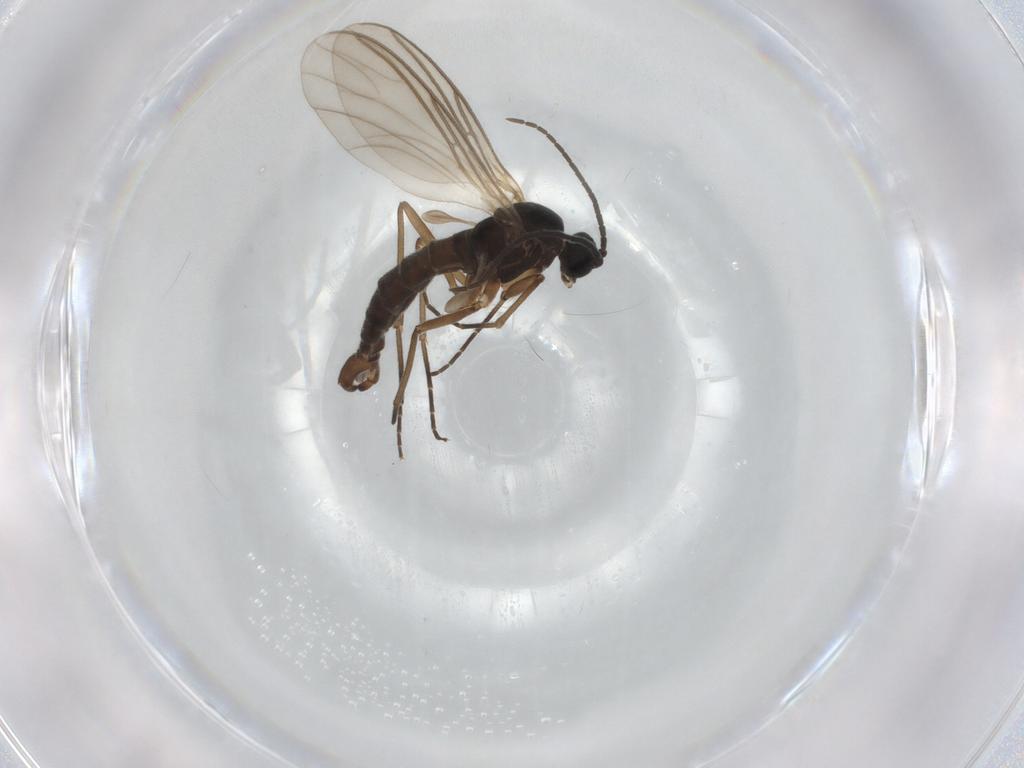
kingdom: Animalia
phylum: Arthropoda
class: Insecta
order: Diptera
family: Sciaridae
